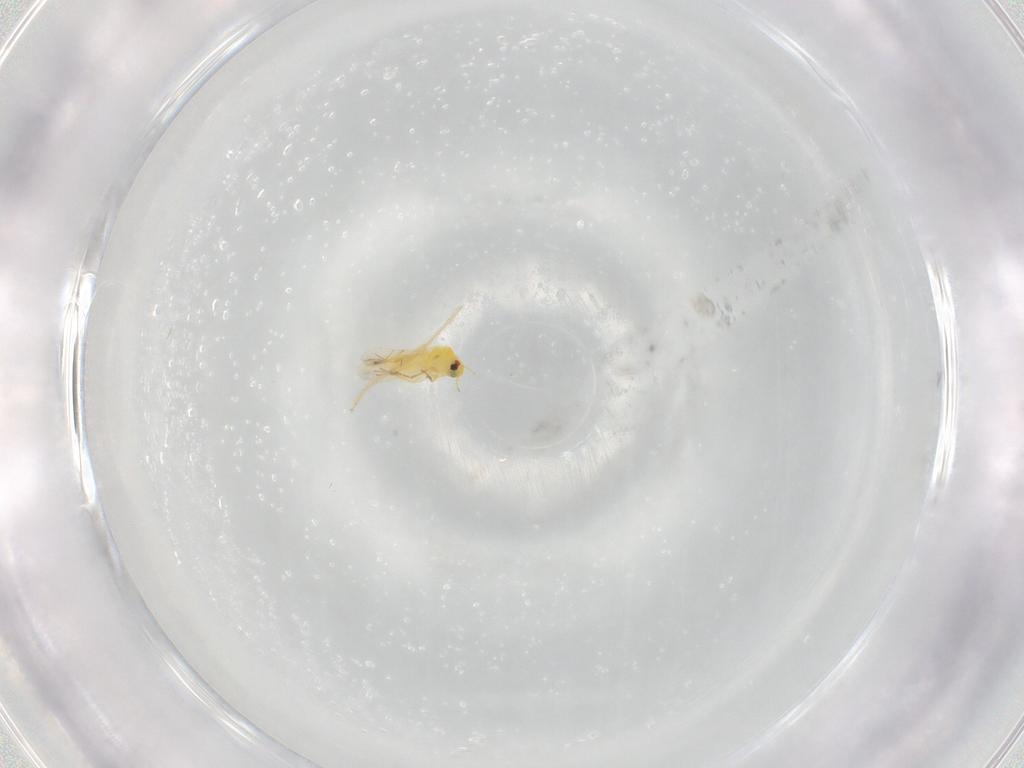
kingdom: Animalia
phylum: Arthropoda
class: Insecta
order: Hemiptera
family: Cicadellidae
